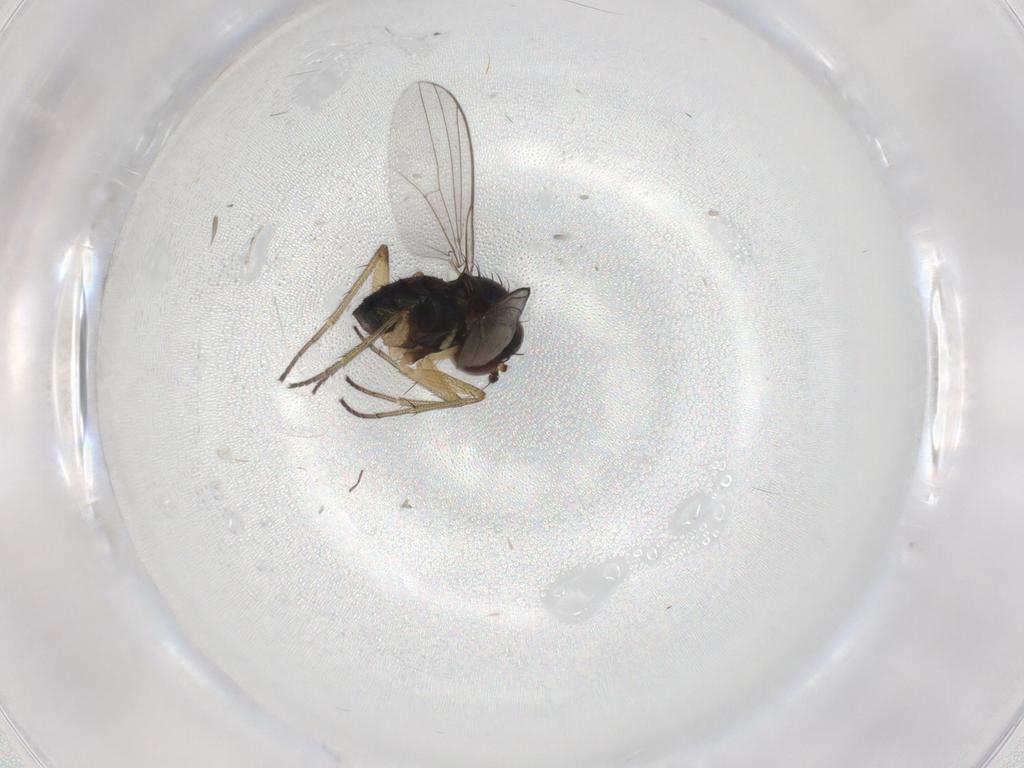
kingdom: Animalia
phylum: Arthropoda
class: Insecta
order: Diptera
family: Dolichopodidae
